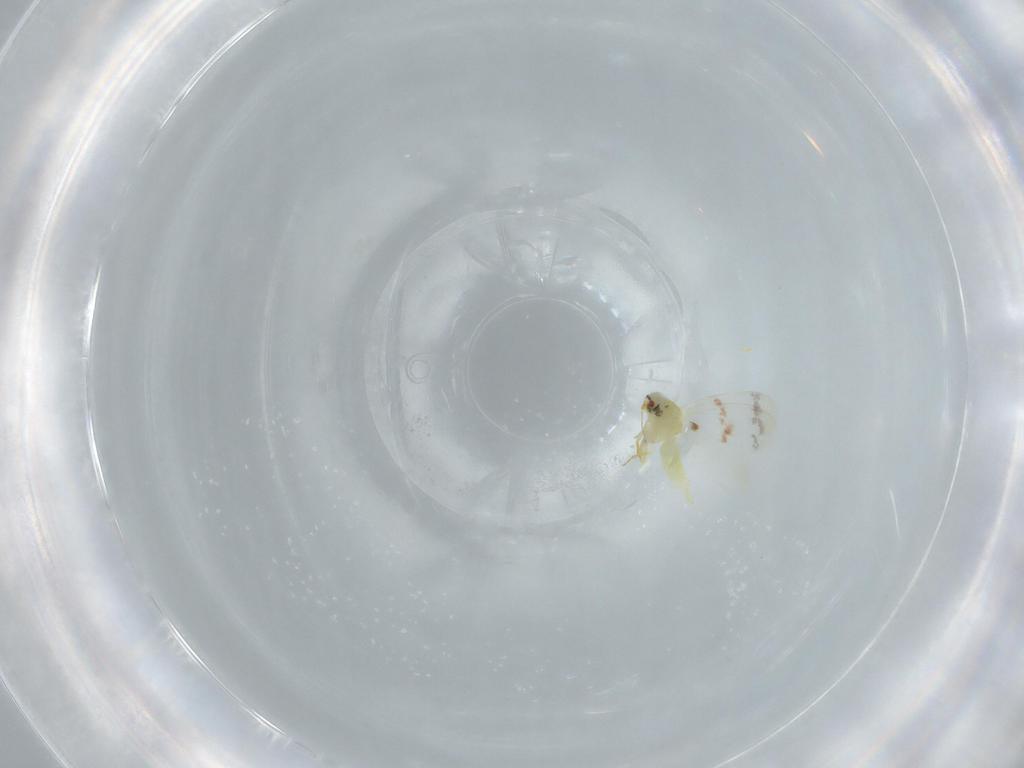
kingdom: Animalia
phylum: Arthropoda
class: Insecta
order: Hemiptera
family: Aleyrodidae
